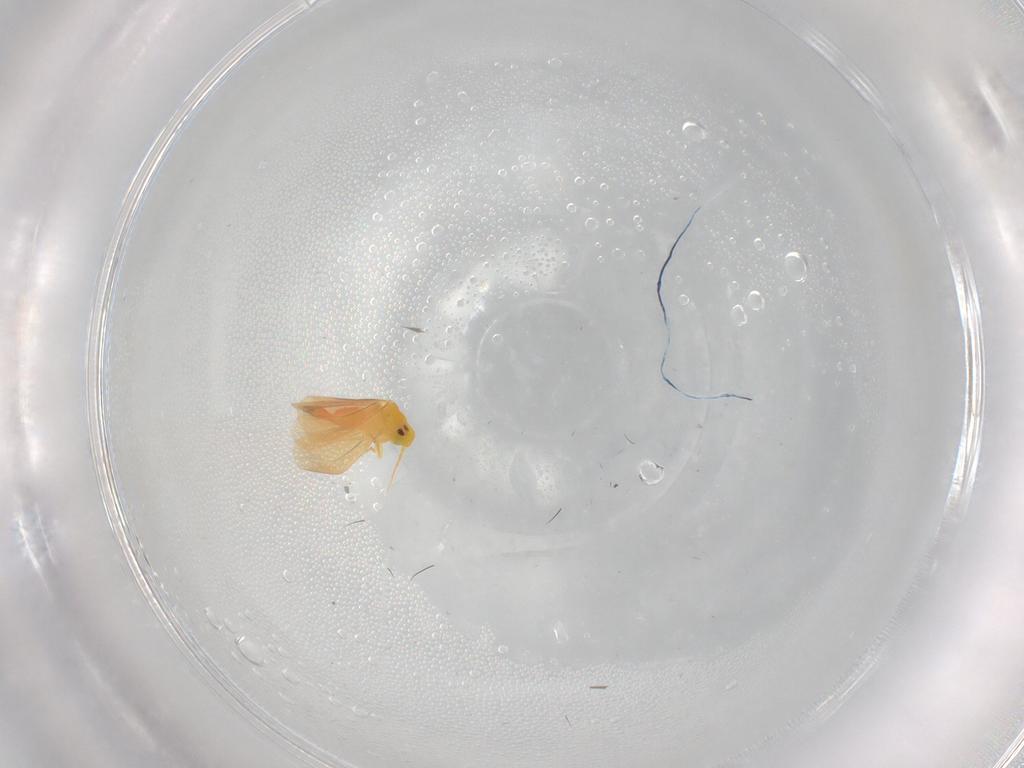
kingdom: Animalia
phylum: Arthropoda
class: Insecta
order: Hemiptera
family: Aleyrodidae
